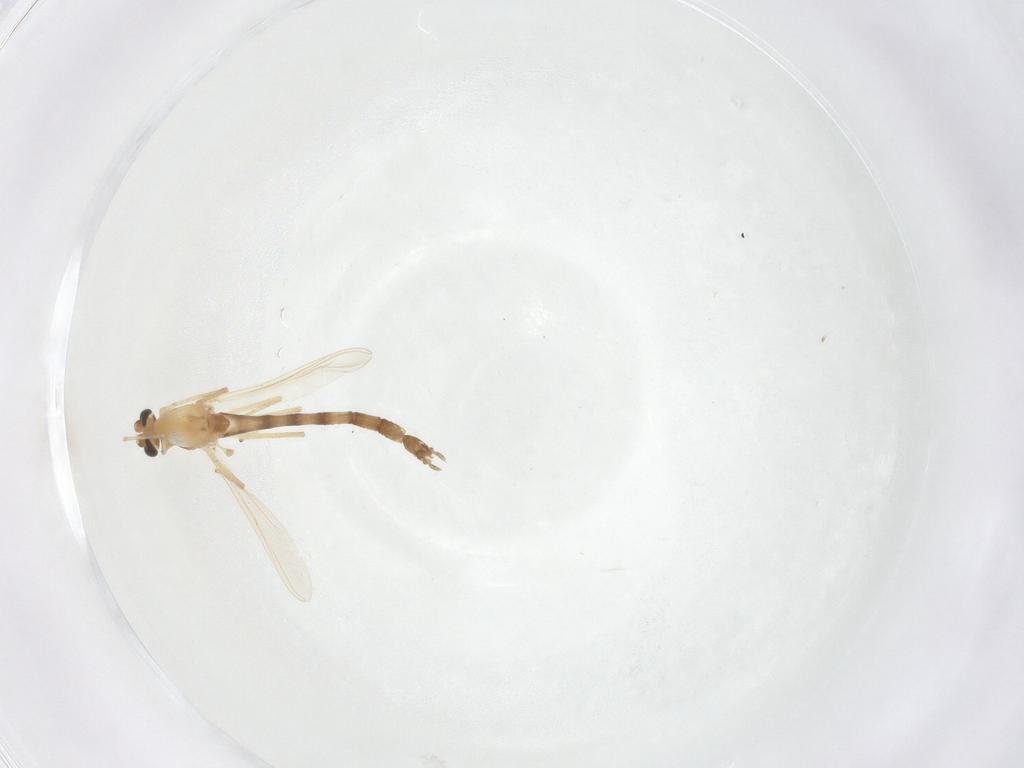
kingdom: Animalia
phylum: Arthropoda
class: Insecta
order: Diptera
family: Chironomidae
